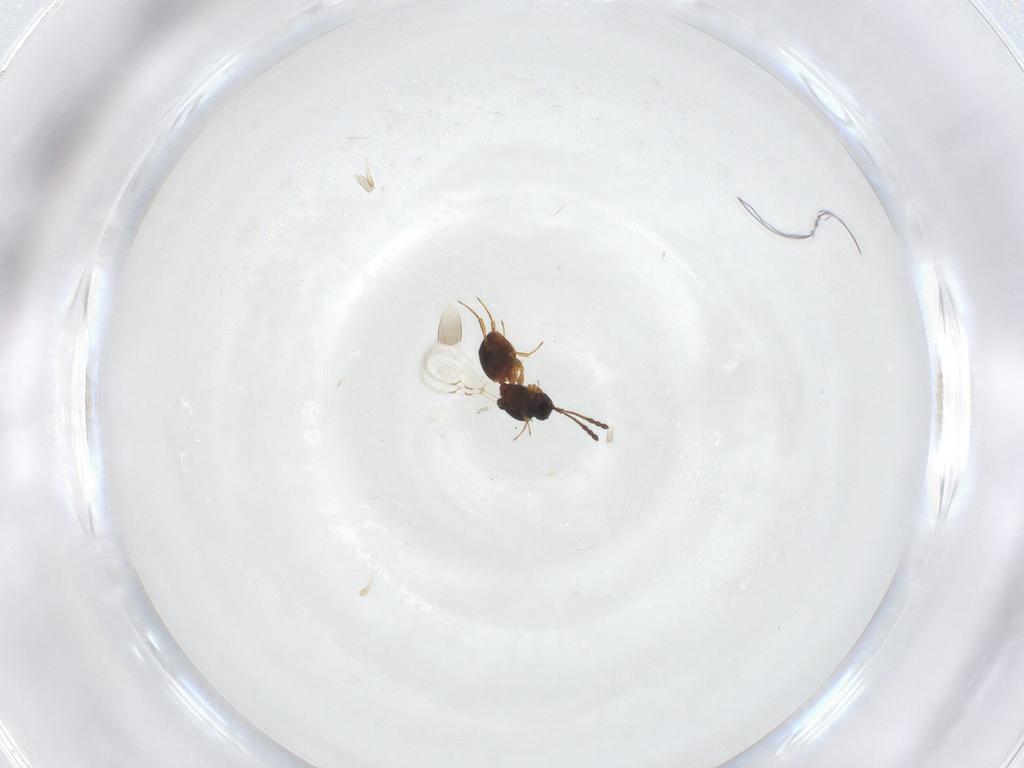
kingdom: Animalia
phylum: Arthropoda
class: Insecta
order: Hymenoptera
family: Figitidae
